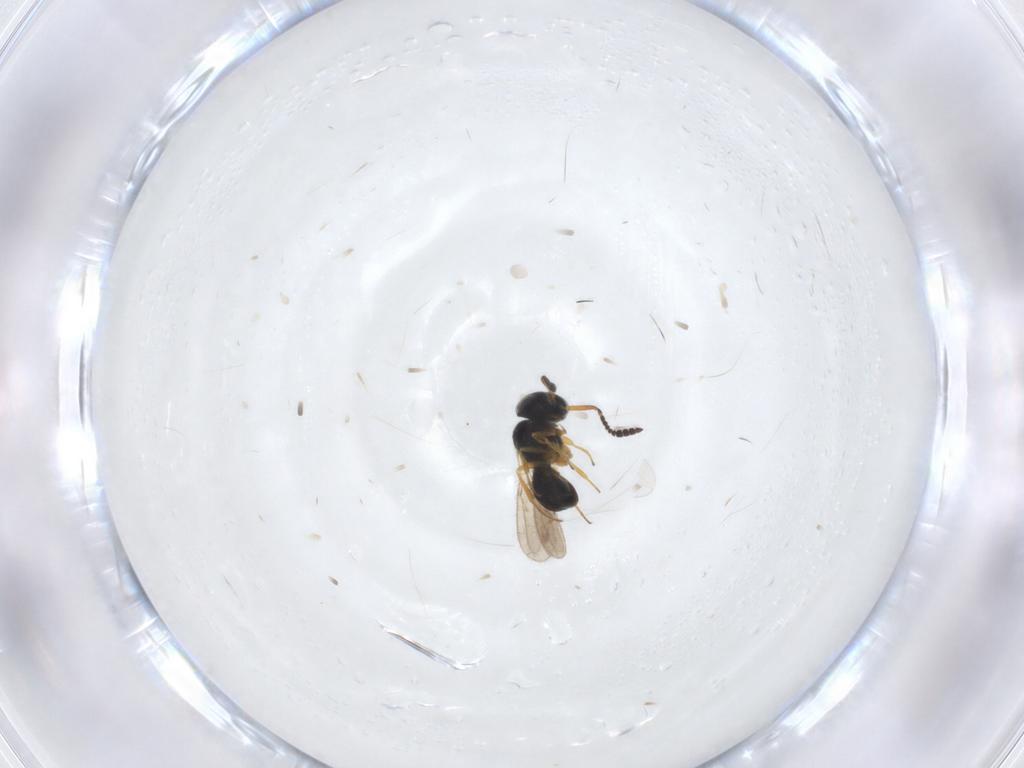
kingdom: Animalia
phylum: Arthropoda
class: Insecta
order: Hymenoptera
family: Scelionidae
